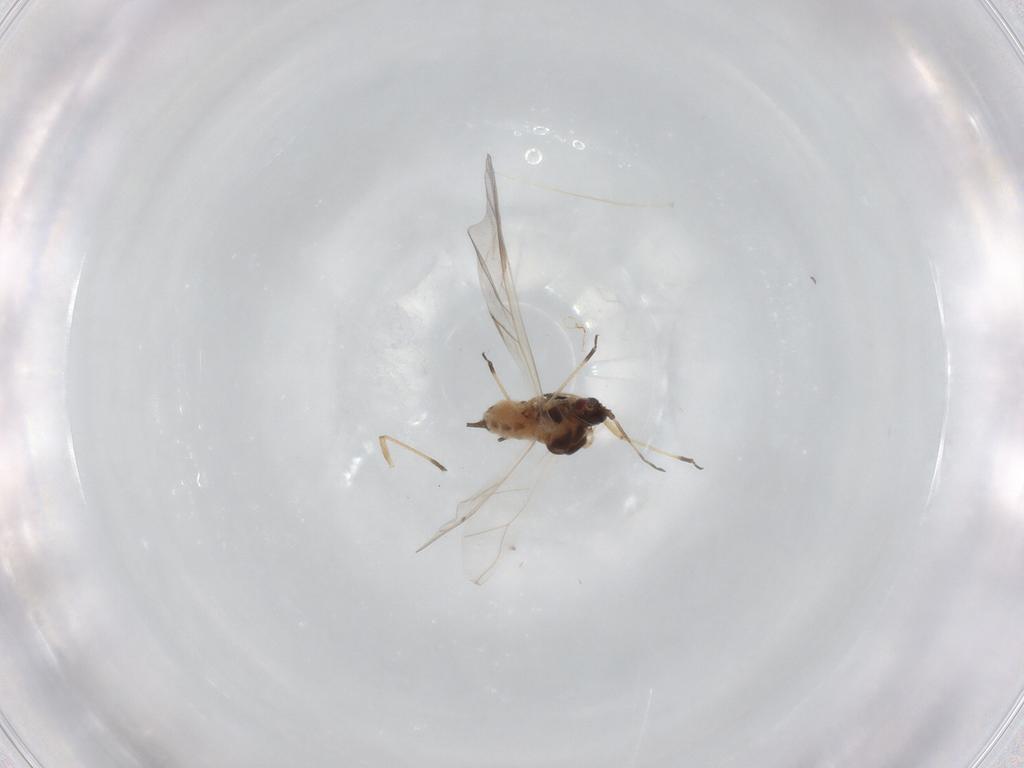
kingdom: Animalia
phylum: Arthropoda
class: Insecta
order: Hemiptera
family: Aphididae
